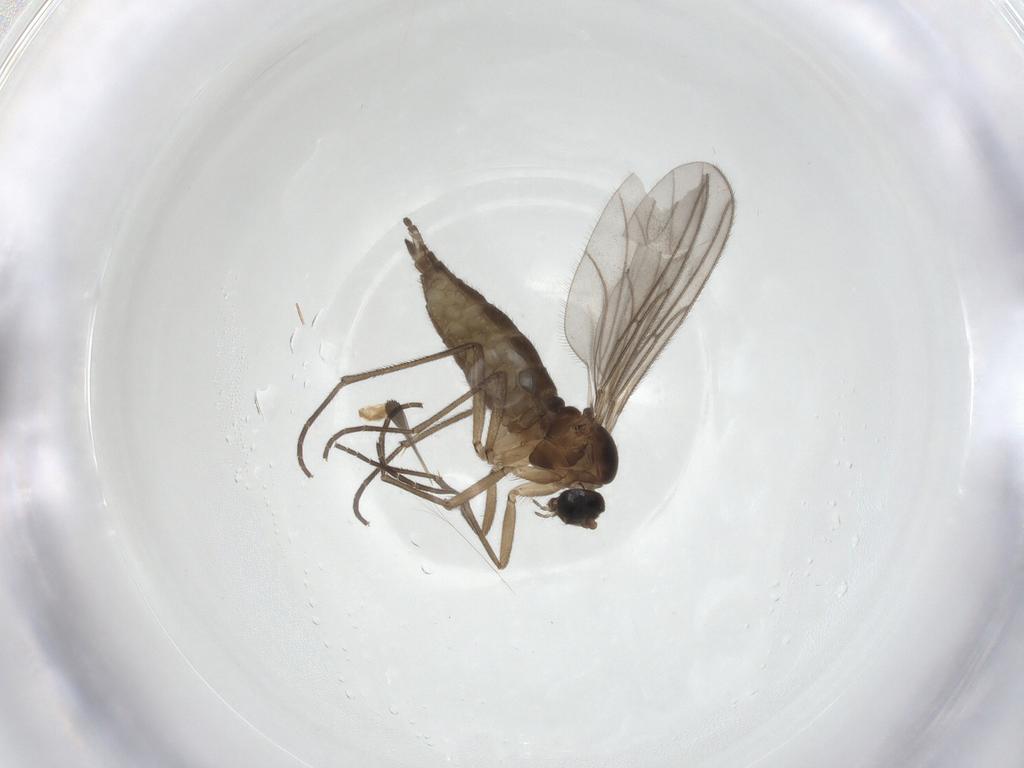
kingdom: Animalia
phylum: Arthropoda
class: Insecta
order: Diptera
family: Sciaridae
